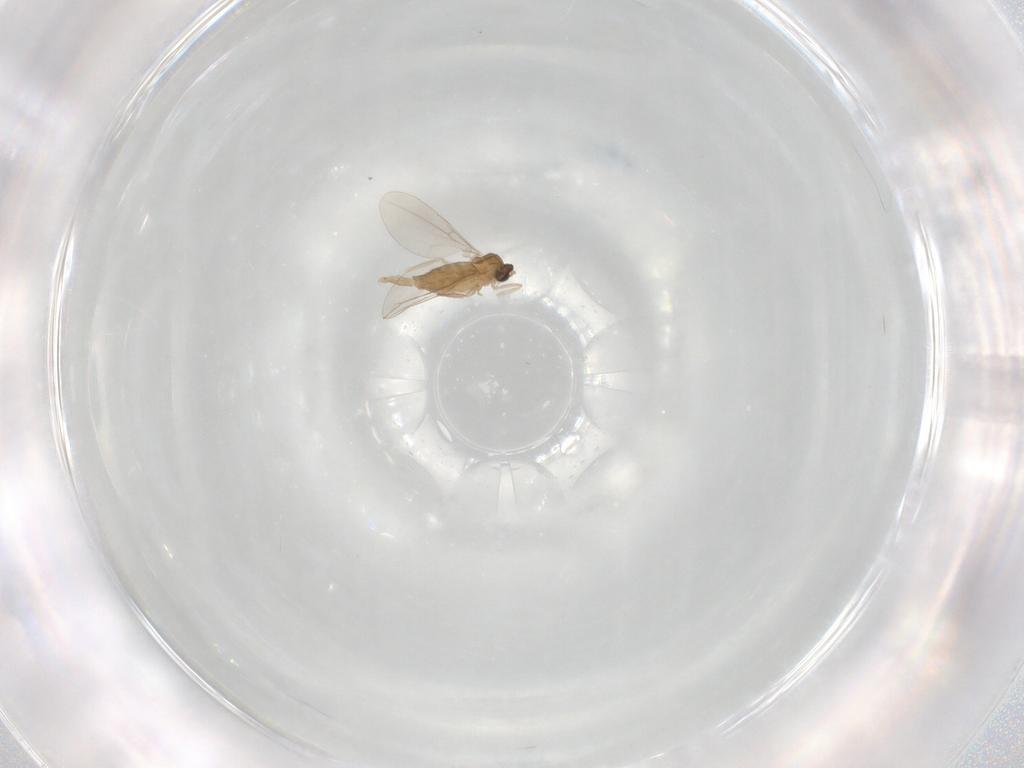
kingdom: Animalia
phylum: Arthropoda
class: Insecta
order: Diptera
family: Cecidomyiidae
